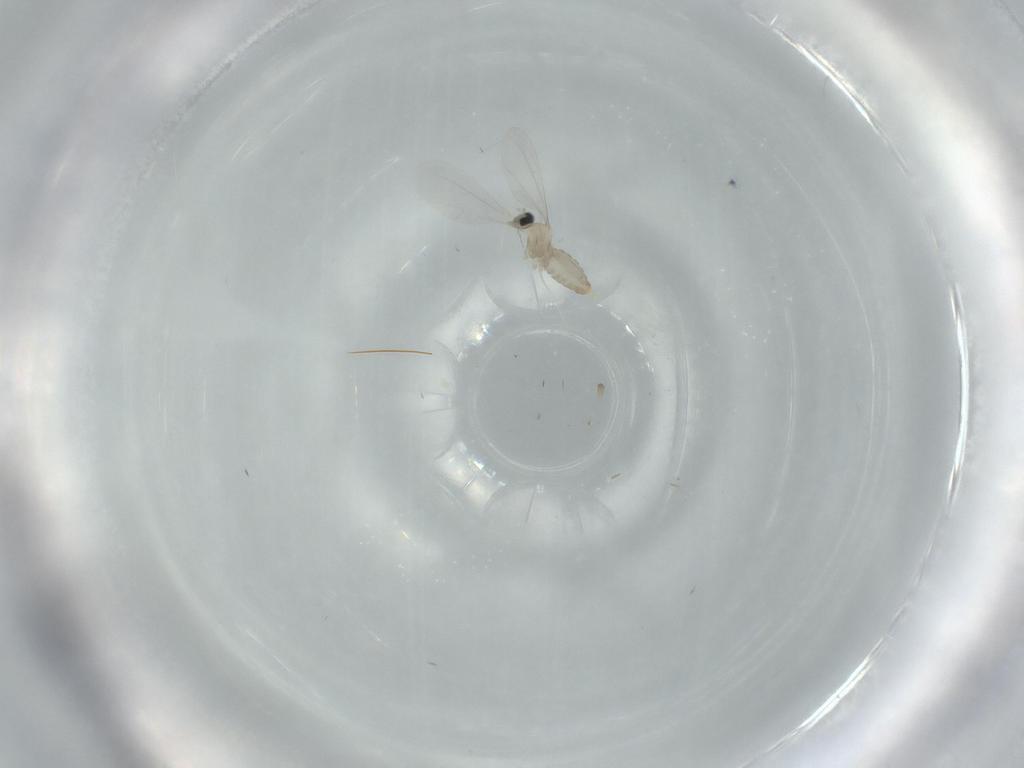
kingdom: Animalia
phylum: Arthropoda
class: Insecta
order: Diptera
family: Cecidomyiidae
